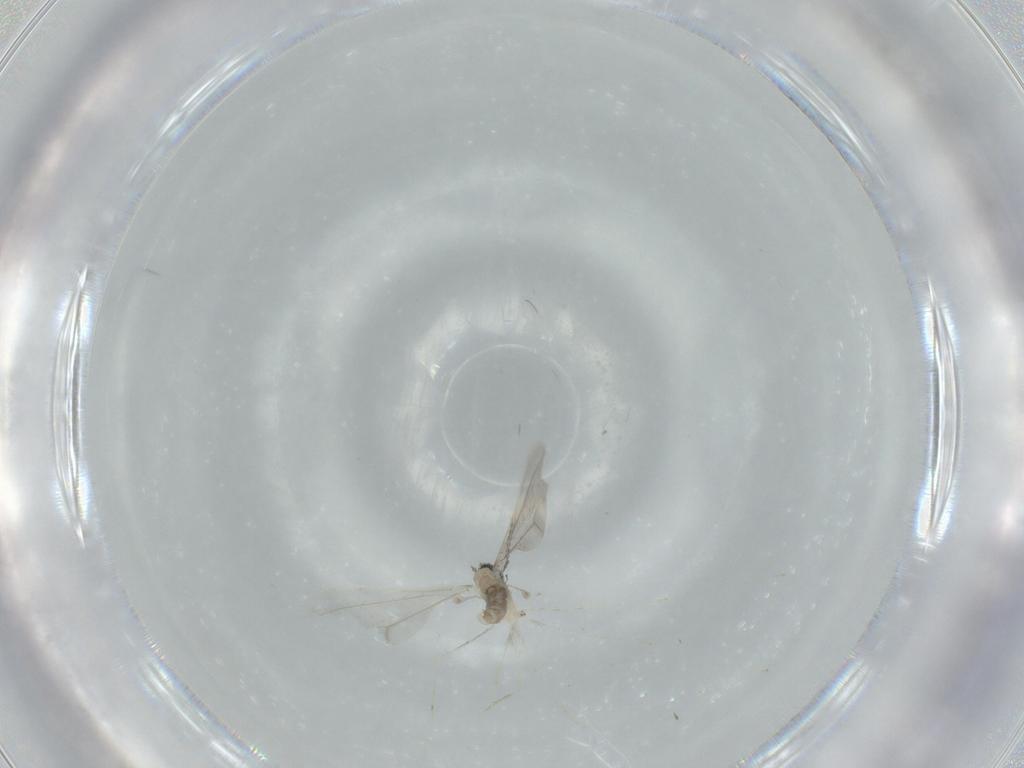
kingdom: Animalia
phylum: Arthropoda
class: Insecta
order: Diptera
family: Cecidomyiidae
